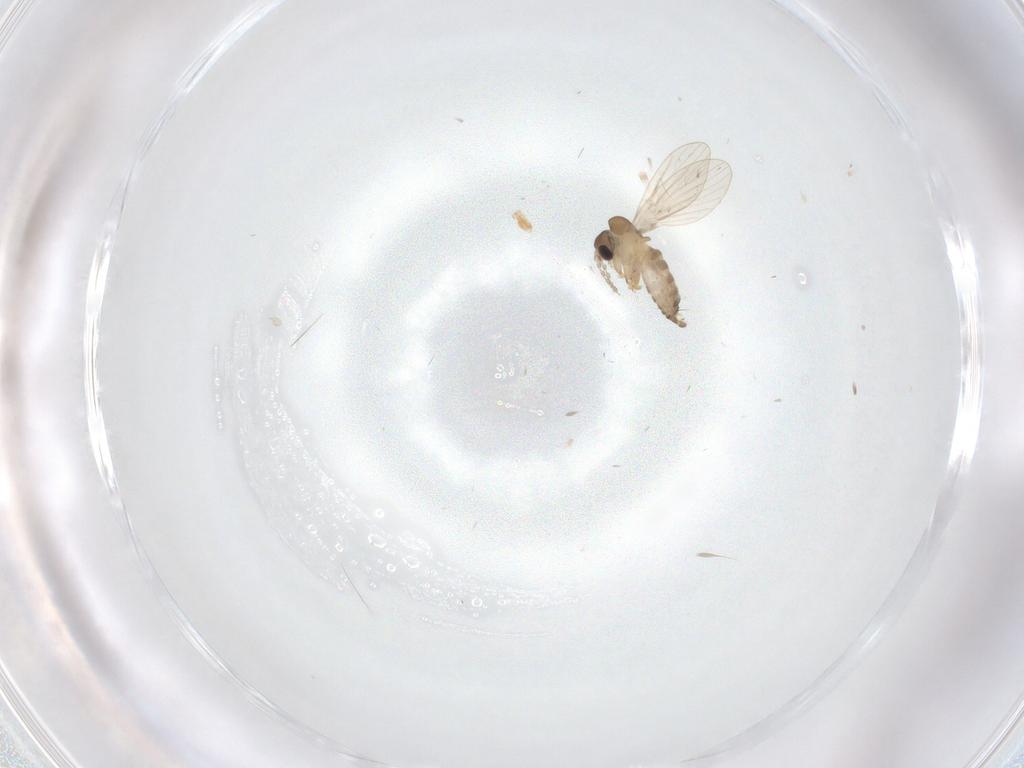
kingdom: Animalia
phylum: Arthropoda
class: Insecta
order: Diptera
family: Chironomidae
